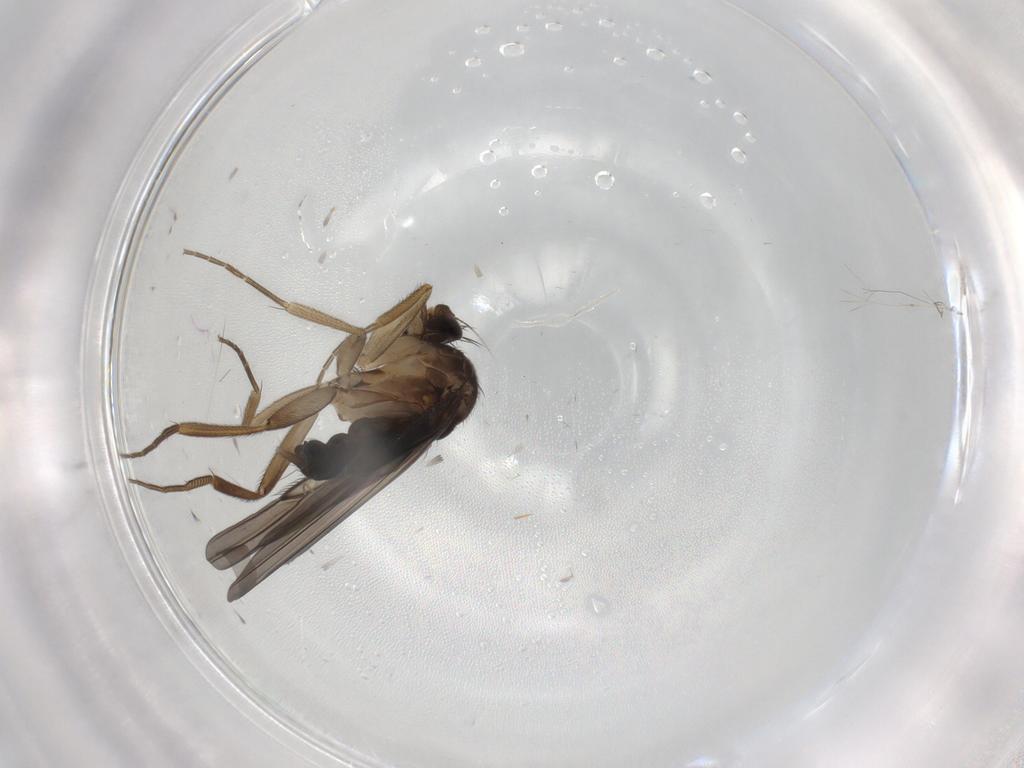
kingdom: Animalia
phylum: Arthropoda
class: Insecta
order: Diptera
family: Phoridae
